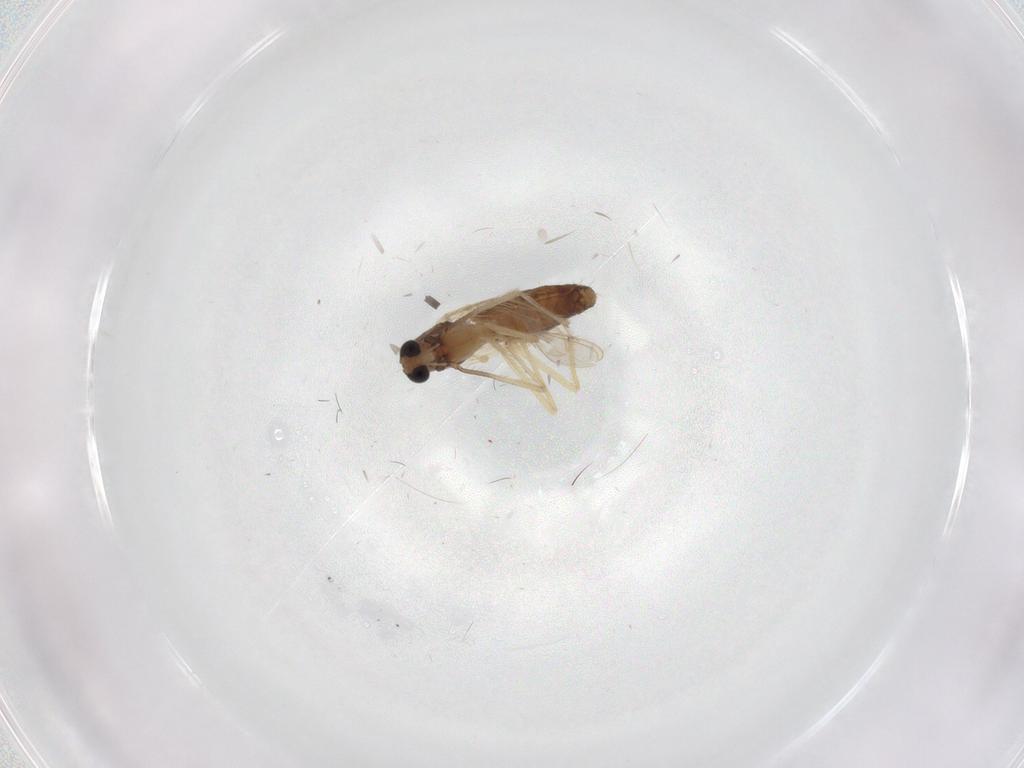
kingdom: Animalia
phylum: Arthropoda
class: Insecta
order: Diptera
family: Chironomidae
